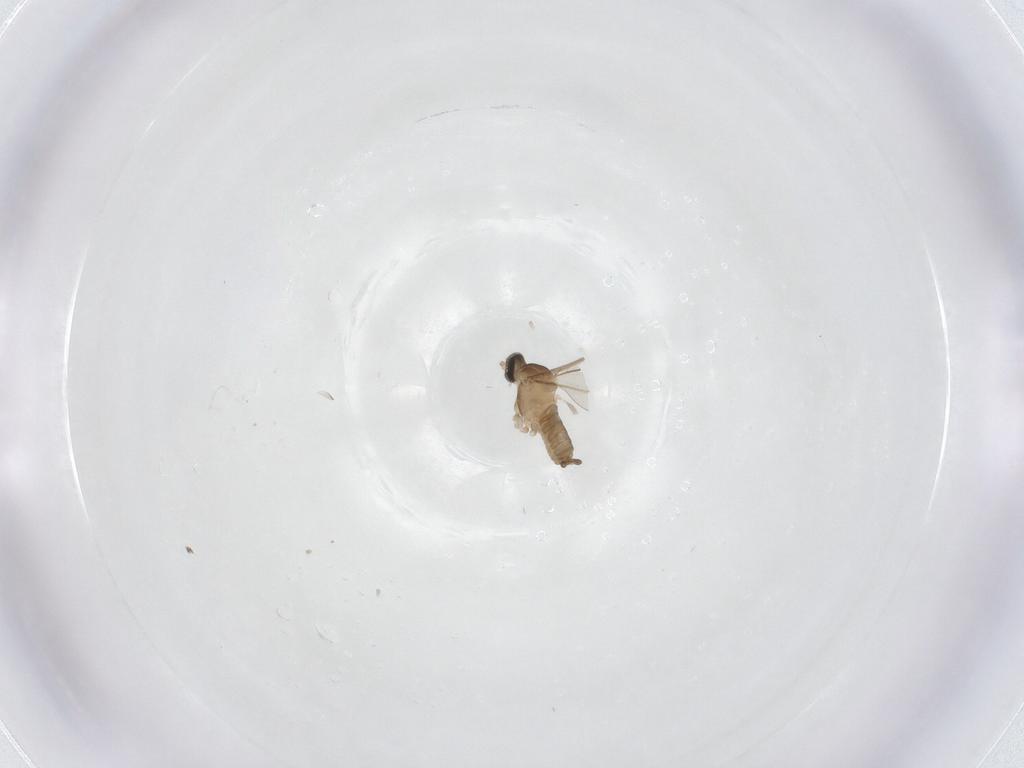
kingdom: Animalia
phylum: Arthropoda
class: Insecta
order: Diptera
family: Cecidomyiidae
